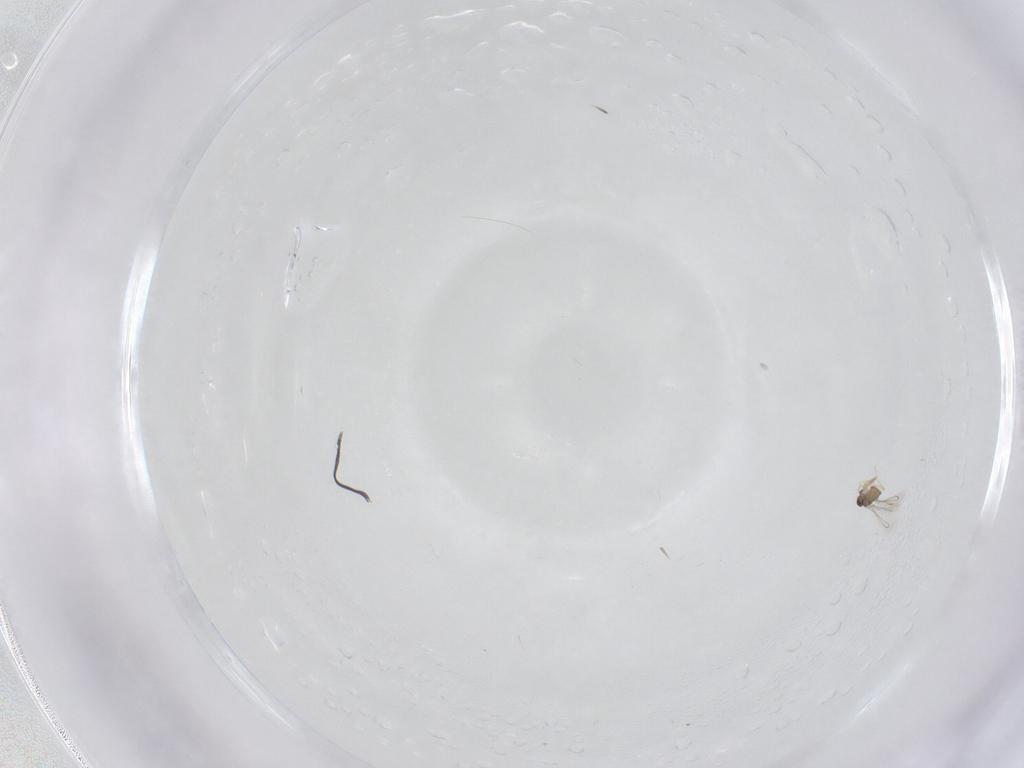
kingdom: Animalia
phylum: Arthropoda
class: Insecta
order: Hymenoptera
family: Mymaridae
